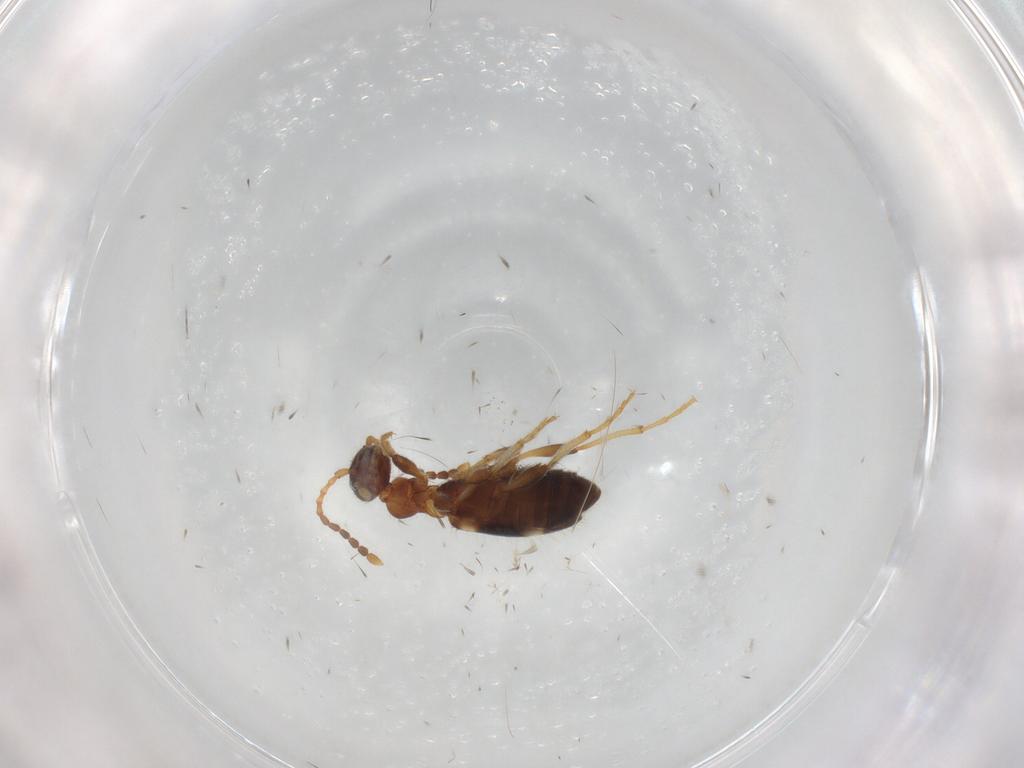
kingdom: Animalia
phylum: Arthropoda
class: Insecta
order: Coleoptera
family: Anthicidae
